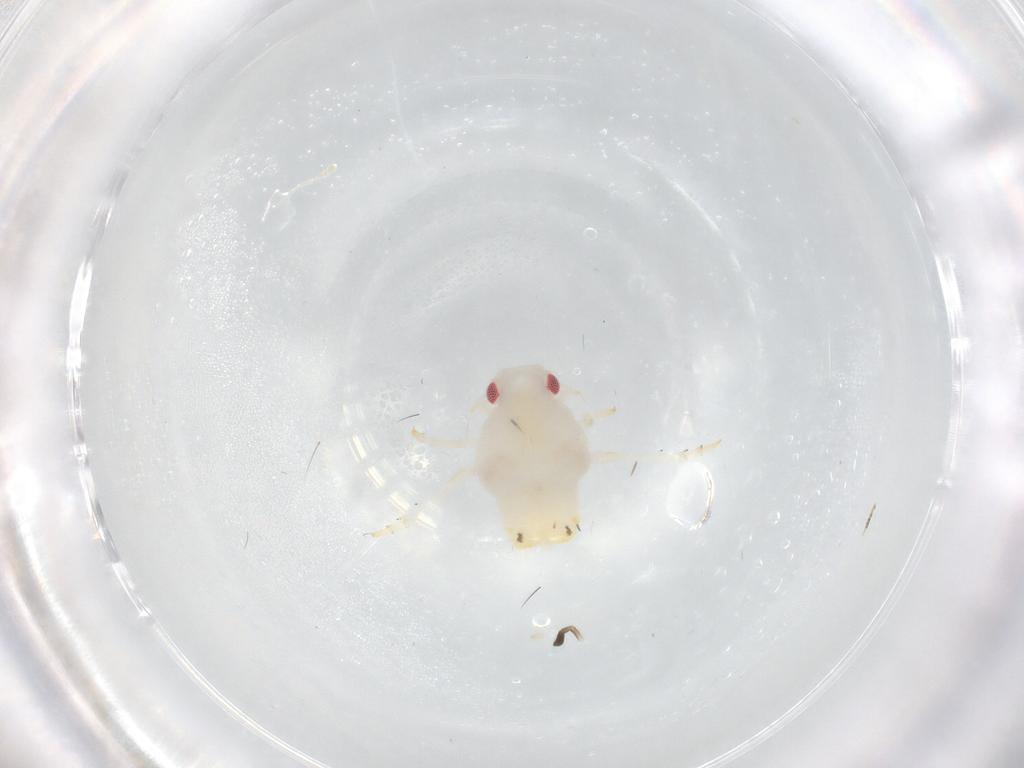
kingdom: Animalia
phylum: Arthropoda
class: Insecta
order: Hemiptera
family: Flatidae
